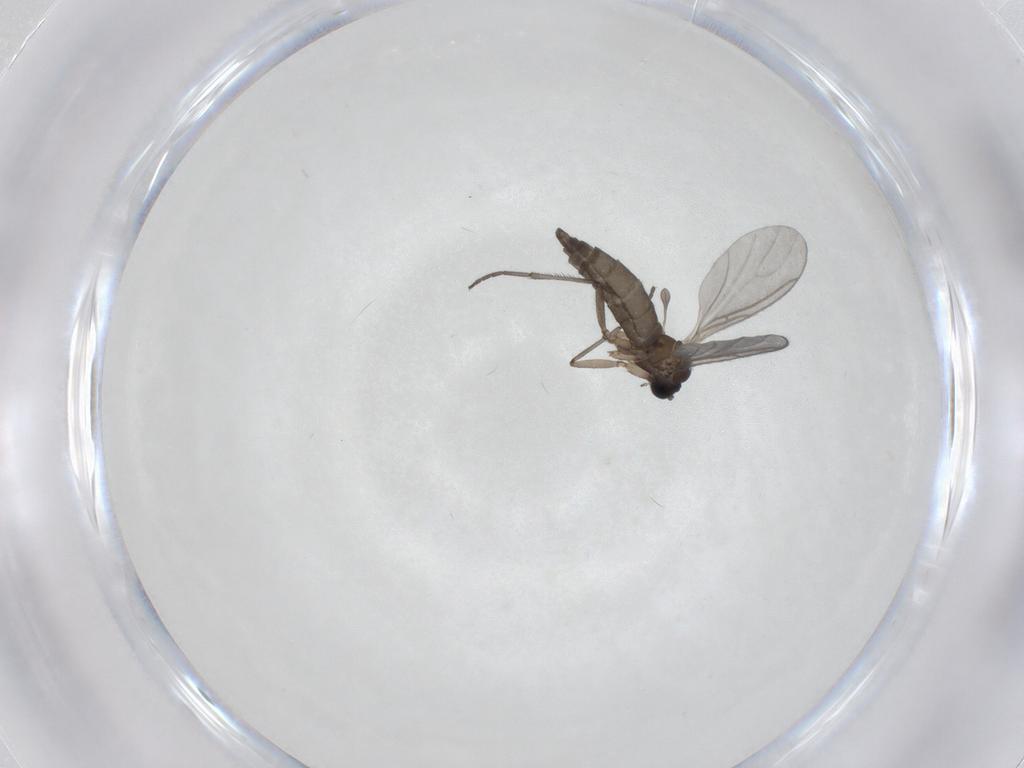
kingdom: Animalia
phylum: Arthropoda
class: Insecta
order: Diptera
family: Sciaridae
